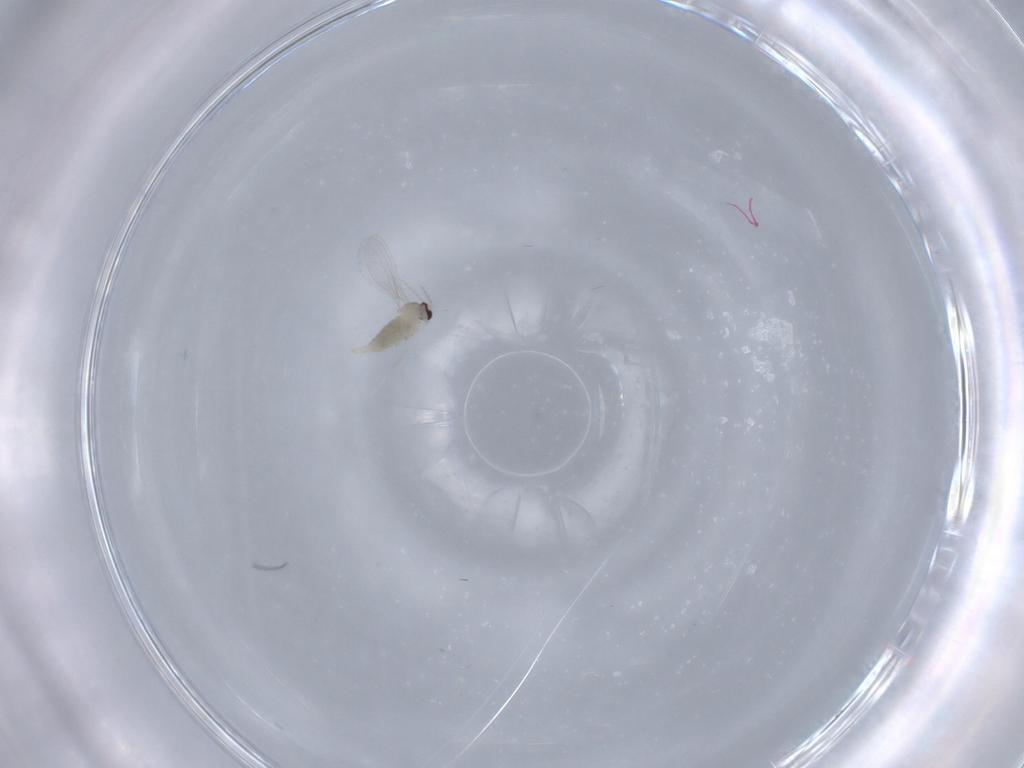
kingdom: Animalia
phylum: Arthropoda
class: Insecta
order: Diptera
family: Cecidomyiidae
